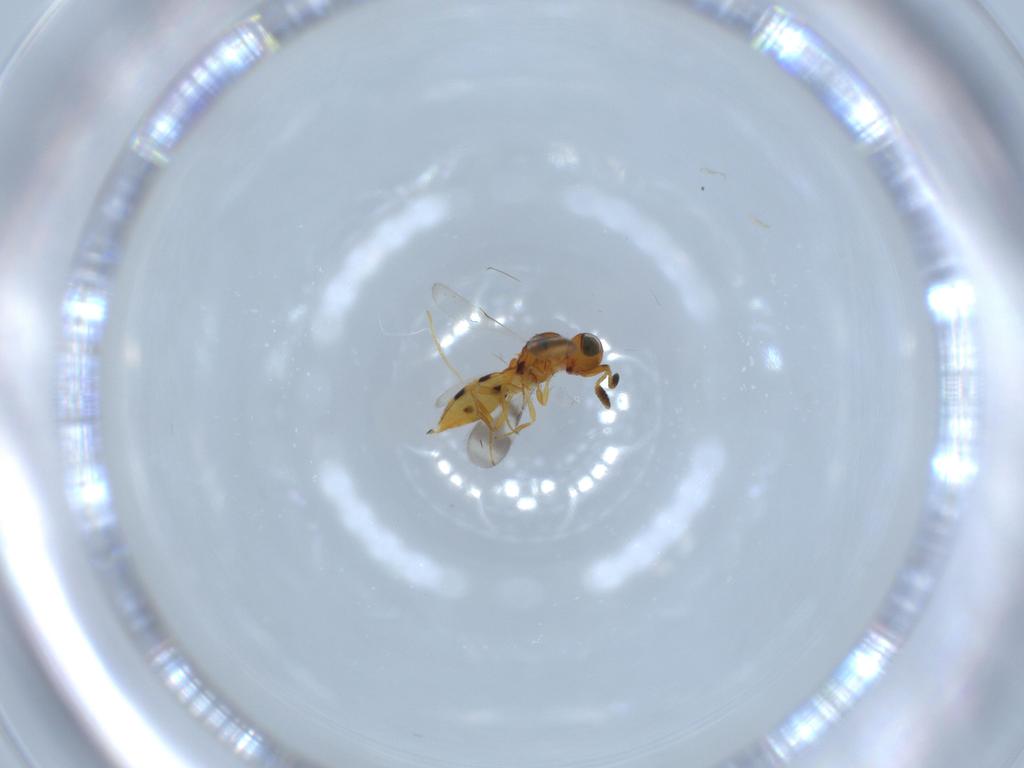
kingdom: Animalia
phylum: Arthropoda
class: Insecta
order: Hymenoptera
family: Scelionidae
